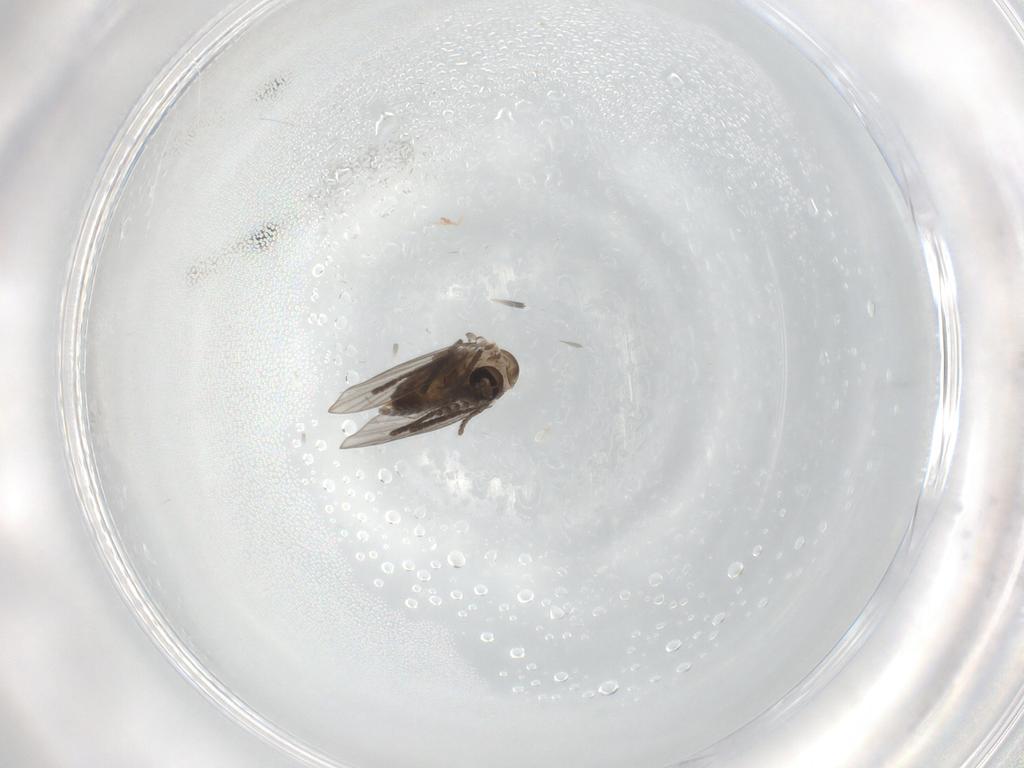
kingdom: Animalia
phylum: Arthropoda
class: Insecta
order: Diptera
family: Psychodidae
